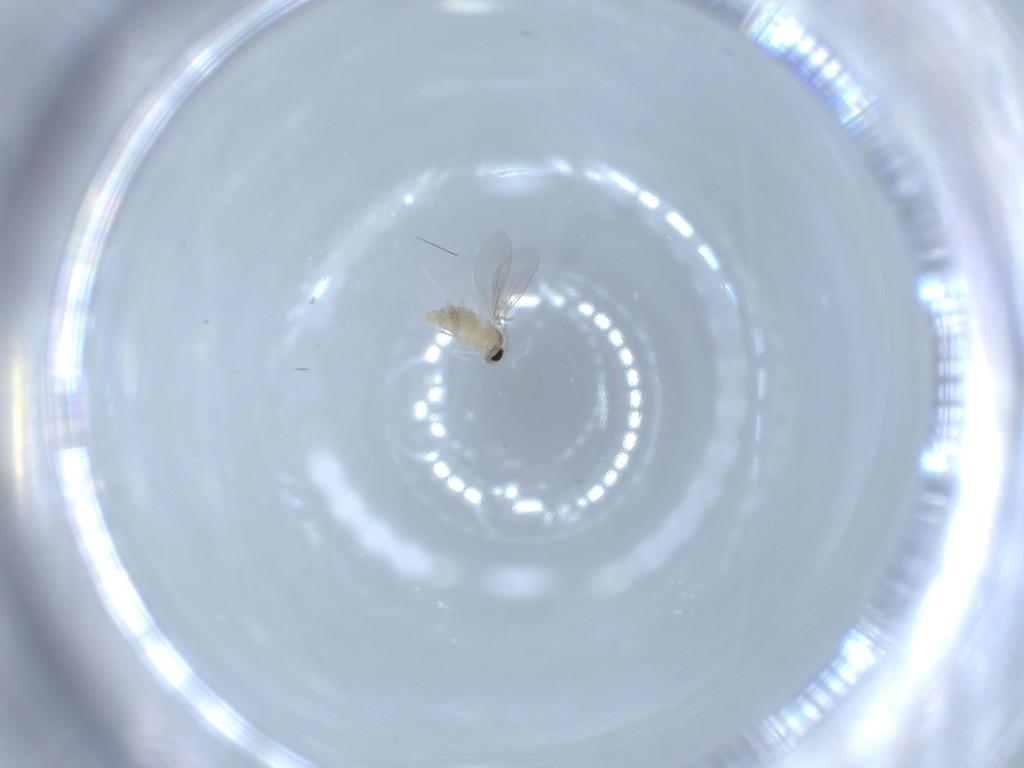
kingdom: Animalia
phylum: Arthropoda
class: Insecta
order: Diptera
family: Cecidomyiidae
